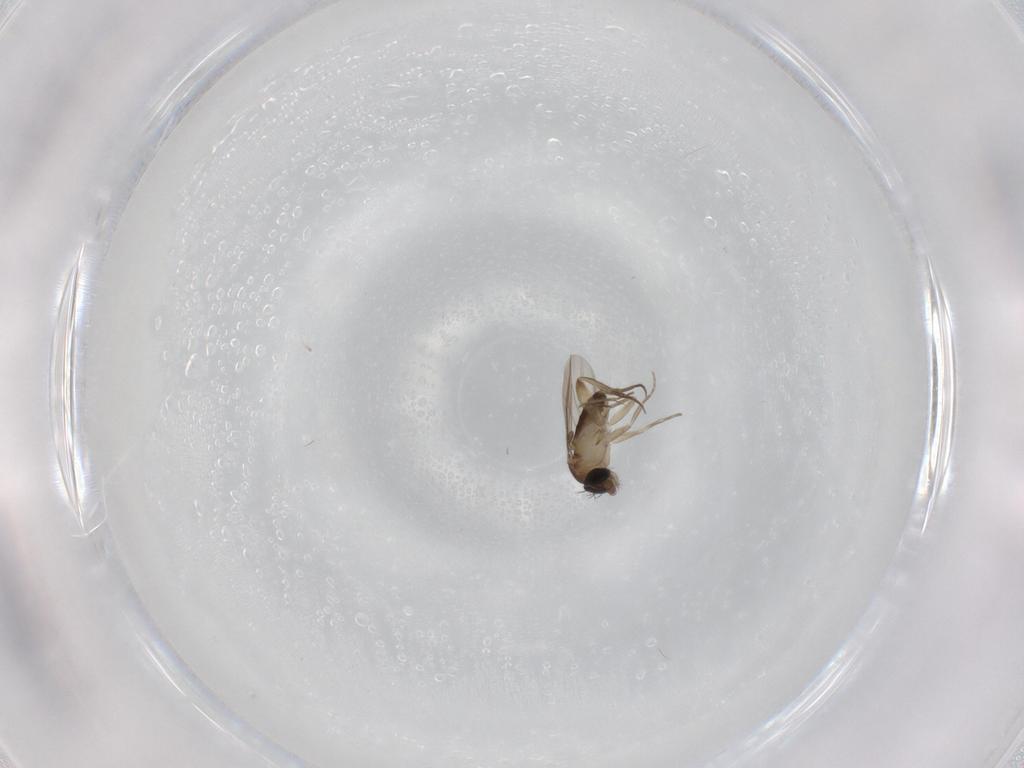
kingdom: Animalia
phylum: Arthropoda
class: Insecta
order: Diptera
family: Phoridae
